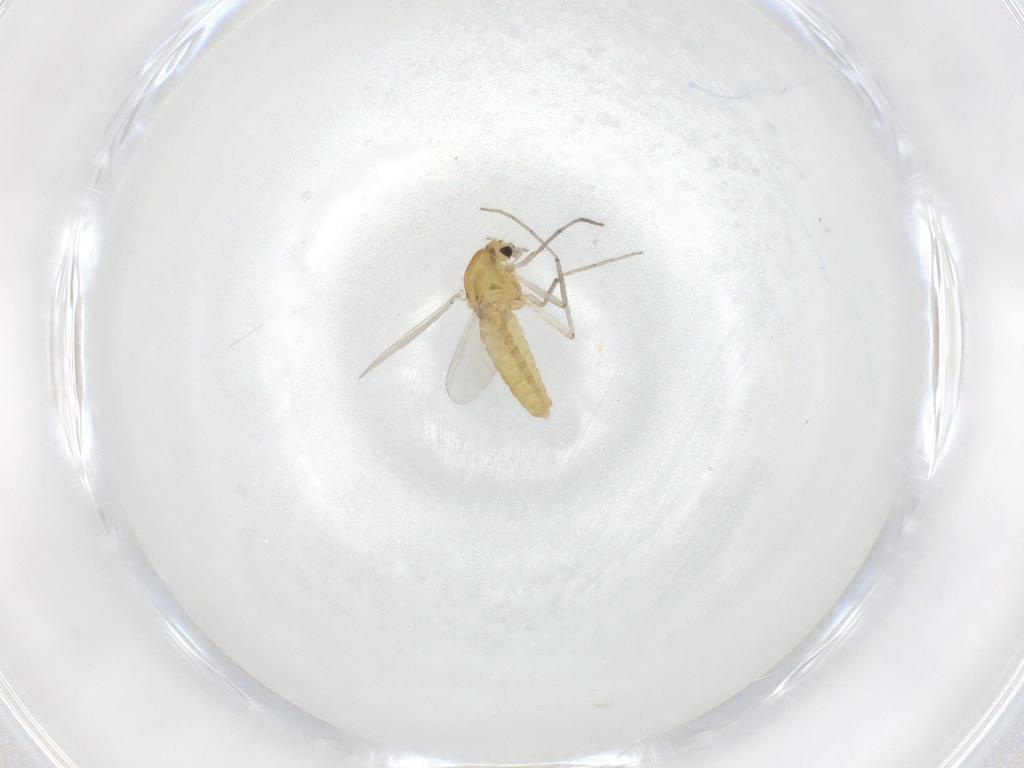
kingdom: Animalia
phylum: Arthropoda
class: Insecta
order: Diptera
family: Chironomidae
